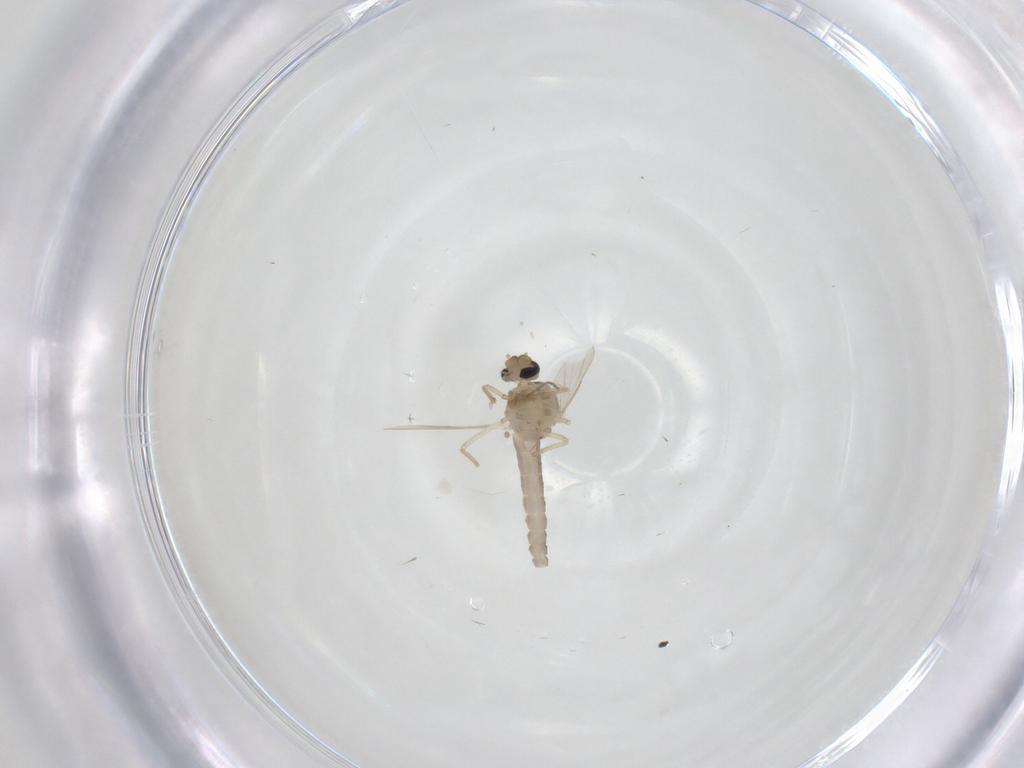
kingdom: Animalia
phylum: Arthropoda
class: Insecta
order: Diptera
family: Ceratopogonidae
